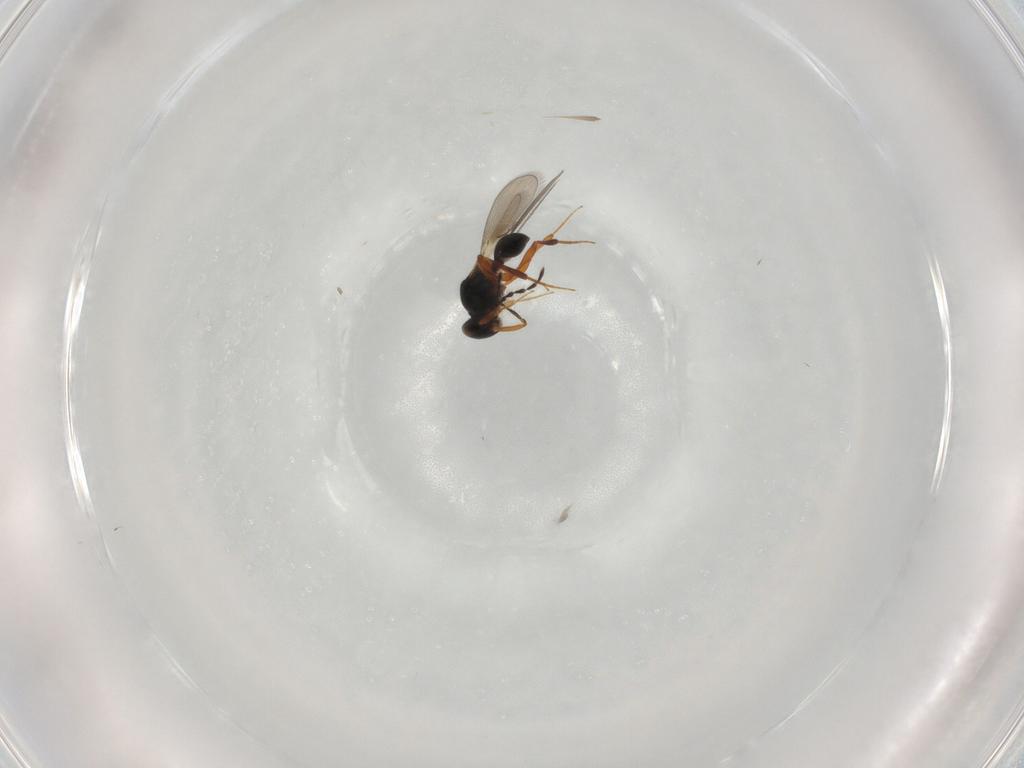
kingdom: Animalia
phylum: Arthropoda
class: Insecta
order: Hymenoptera
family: Platygastridae
